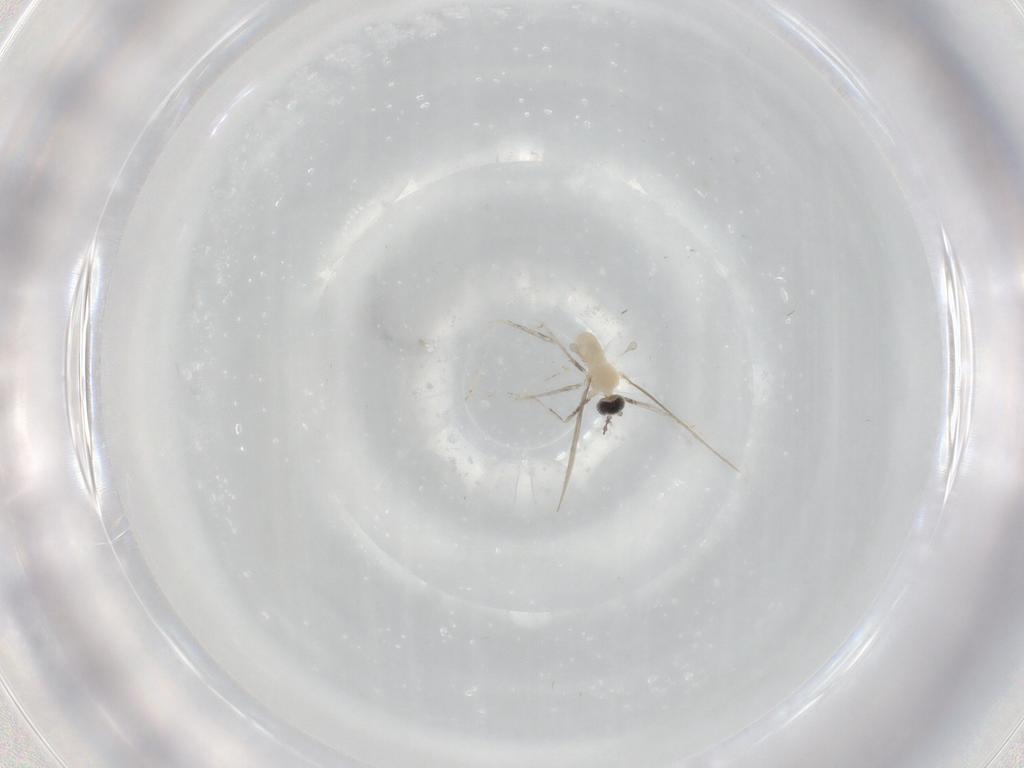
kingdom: Animalia
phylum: Arthropoda
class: Insecta
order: Diptera
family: Cecidomyiidae
